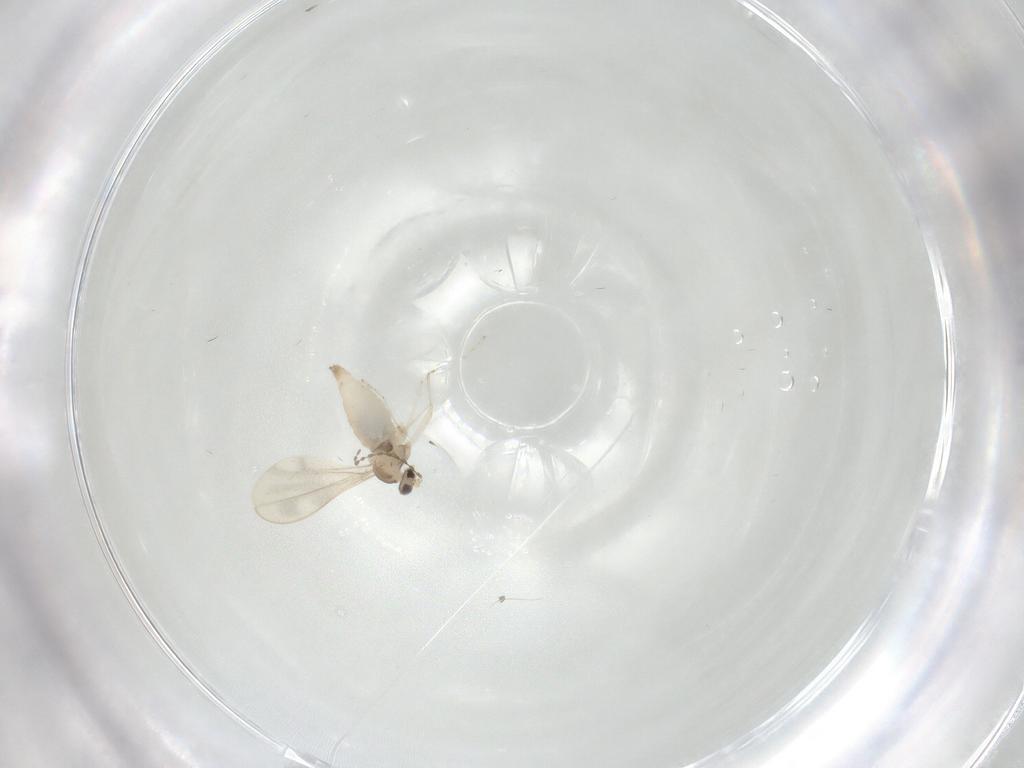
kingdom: Animalia
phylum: Arthropoda
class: Insecta
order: Diptera
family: Cecidomyiidae
